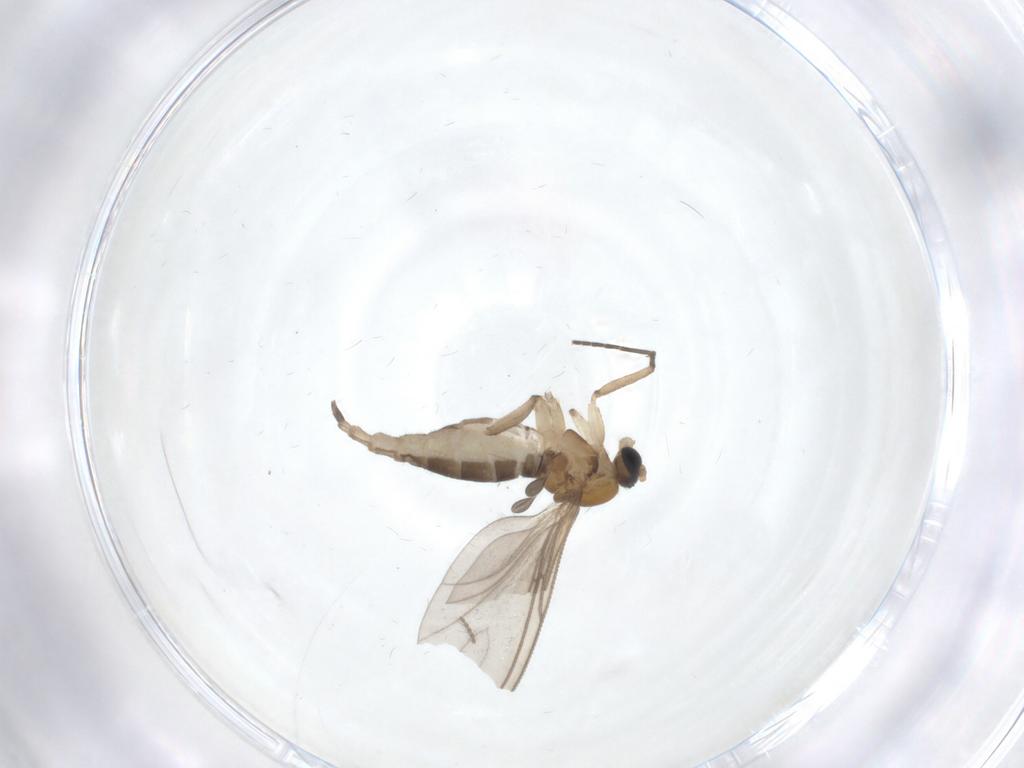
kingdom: Animalia
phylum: Arthropoda
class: Insecta
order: Diptera
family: Sciaridae
